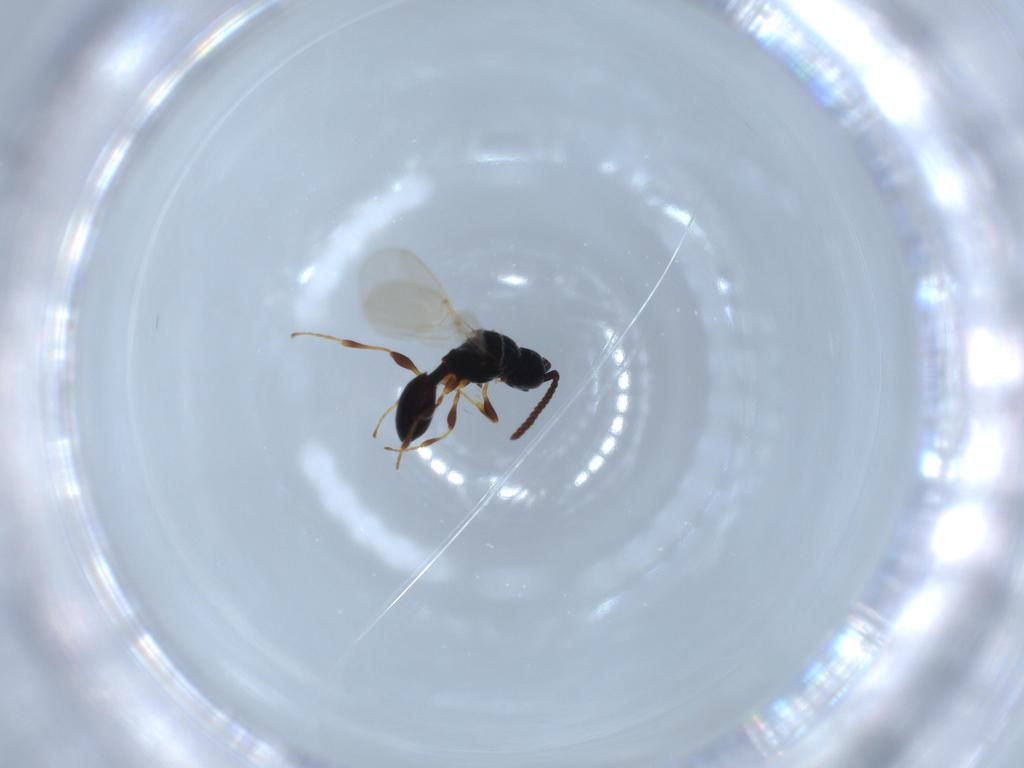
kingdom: Animalia
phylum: Arthropoda
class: Insecta
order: Hymenoptera
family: Diapriidae
